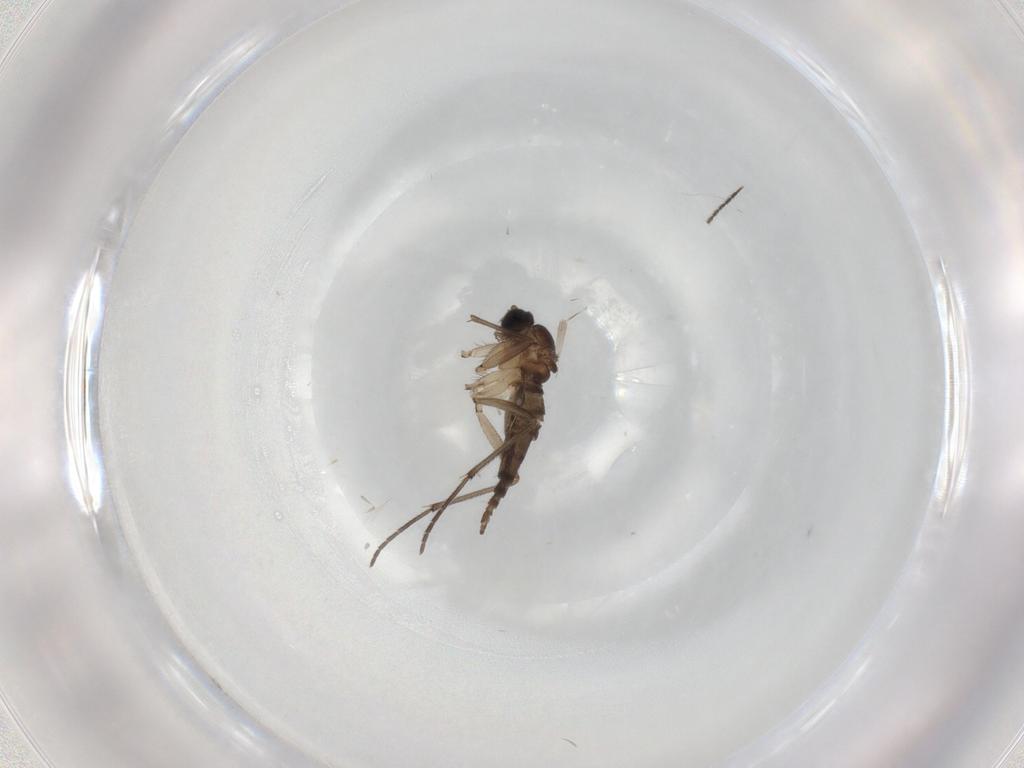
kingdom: Animalia
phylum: Arthropoda
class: Insecta
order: Diptera
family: Sciaridae
